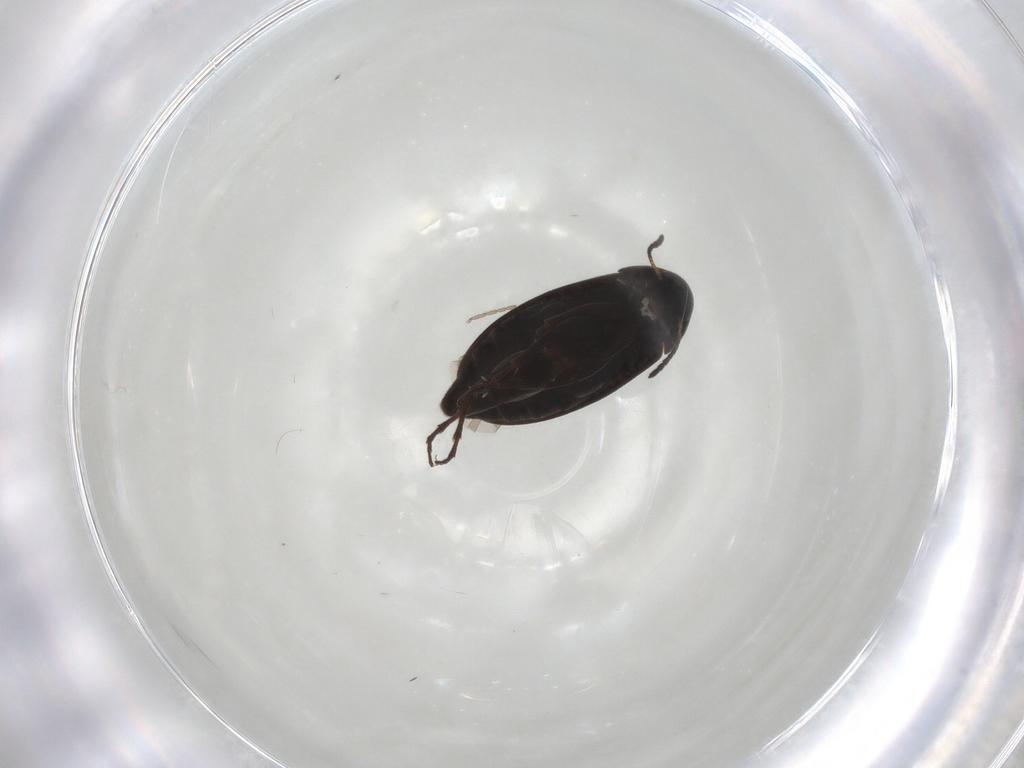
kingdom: Animalia
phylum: Arthropoda
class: Insecta
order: Coleoptera
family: Scraptiidae
